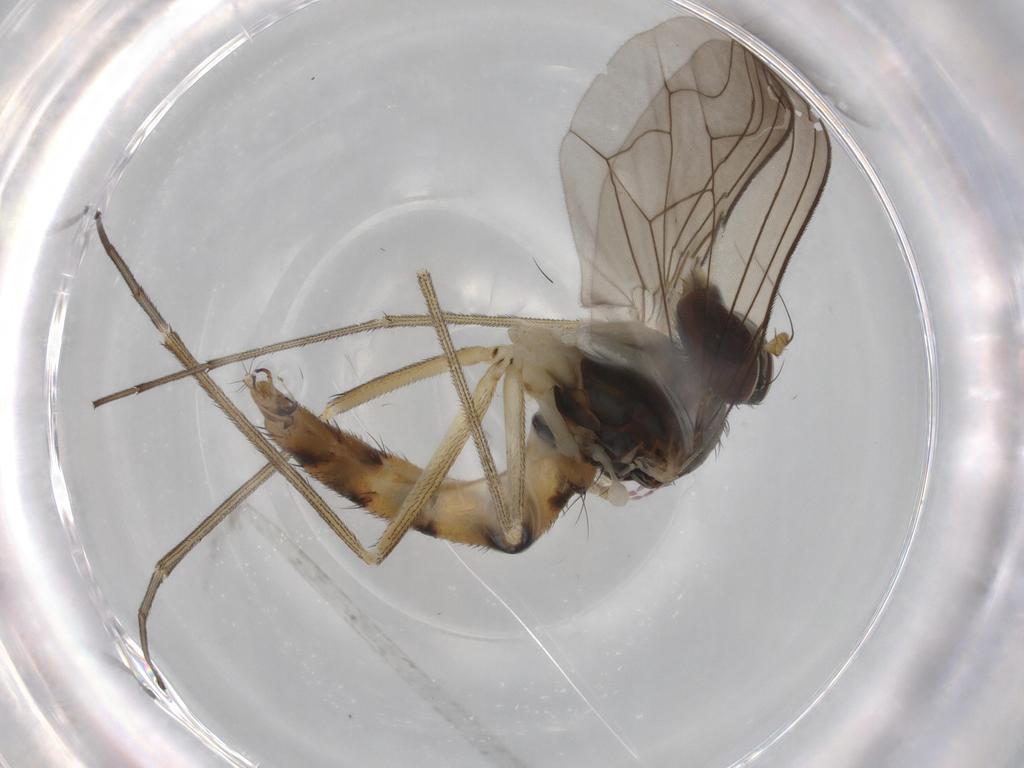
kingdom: Animalia
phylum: Arthropoda
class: Insecta
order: Diptera
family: Dolichopodidae
